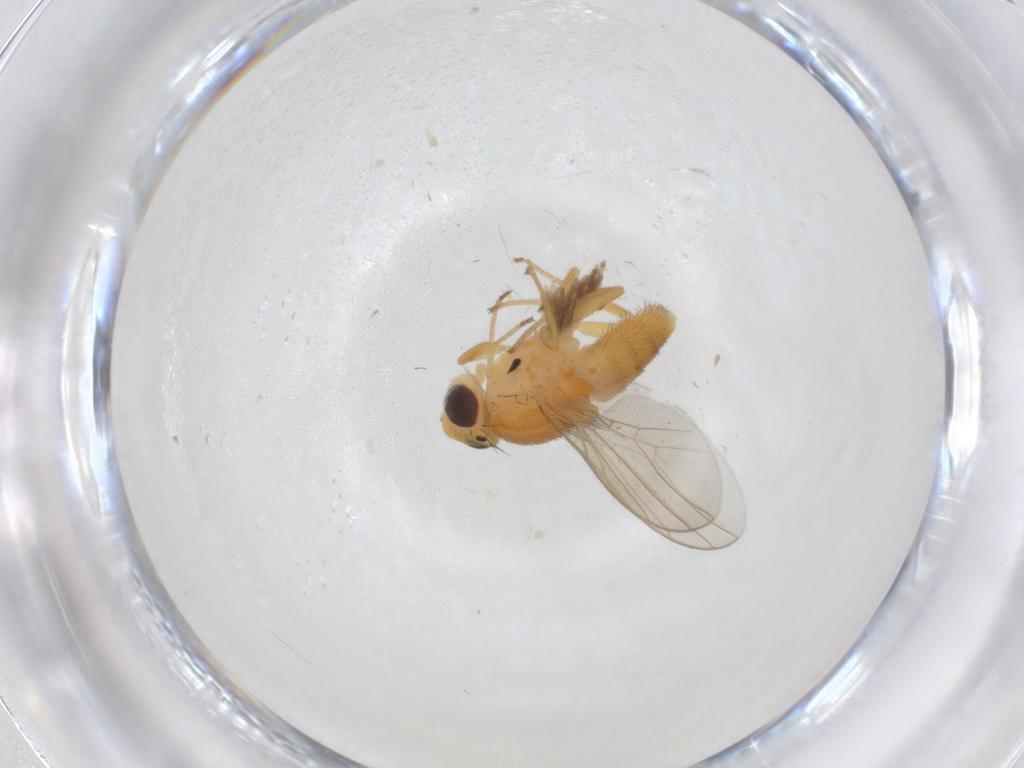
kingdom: Animalia
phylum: Arthropoda
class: Insecta
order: Diptera
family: Chloropidae
